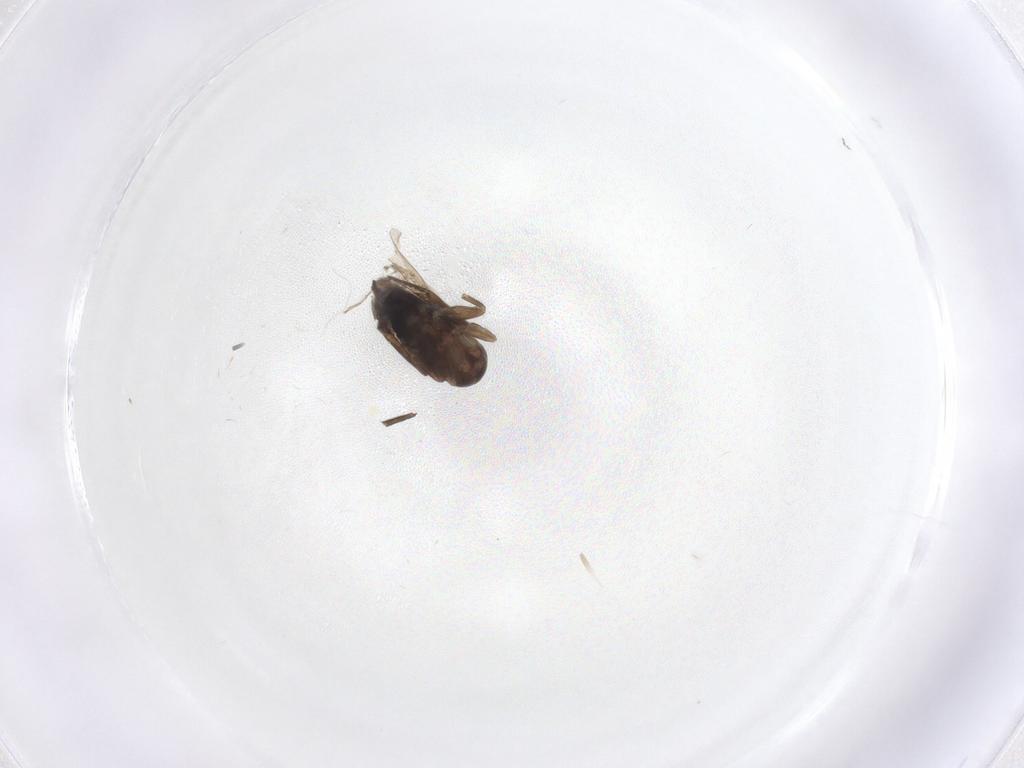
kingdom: Animalia
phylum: Arthropoda
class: Insecta
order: Diptera
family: Phoridae
